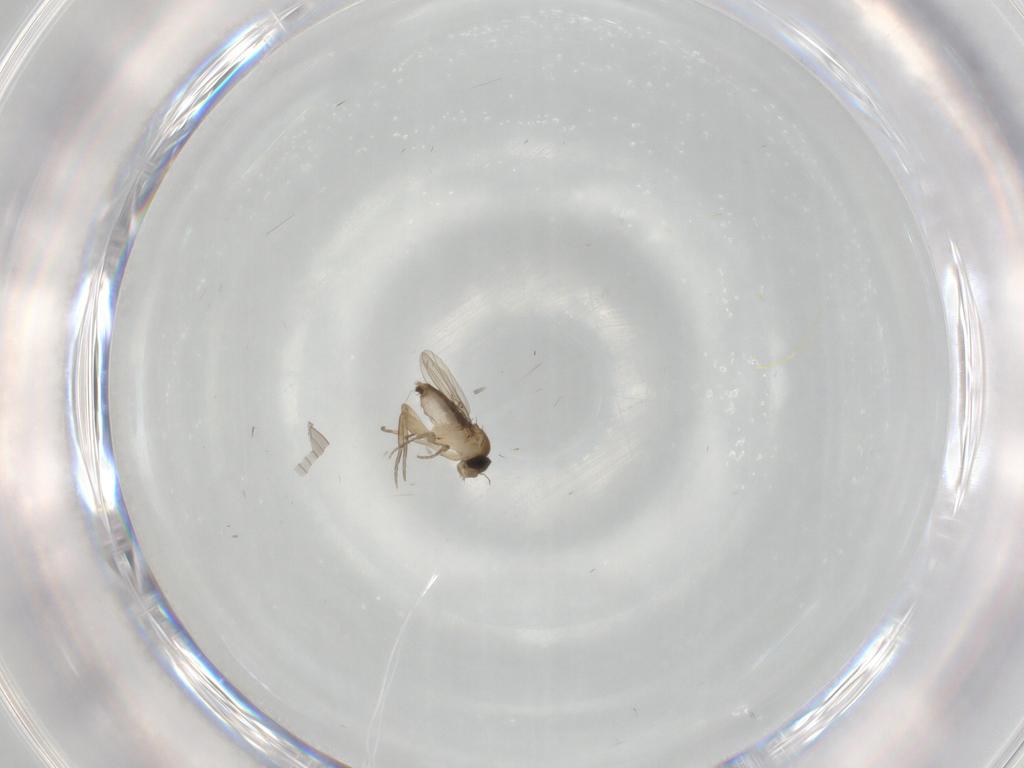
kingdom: Animalia
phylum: Arthropoda
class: Insecta
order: Diptera
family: Phoridae
